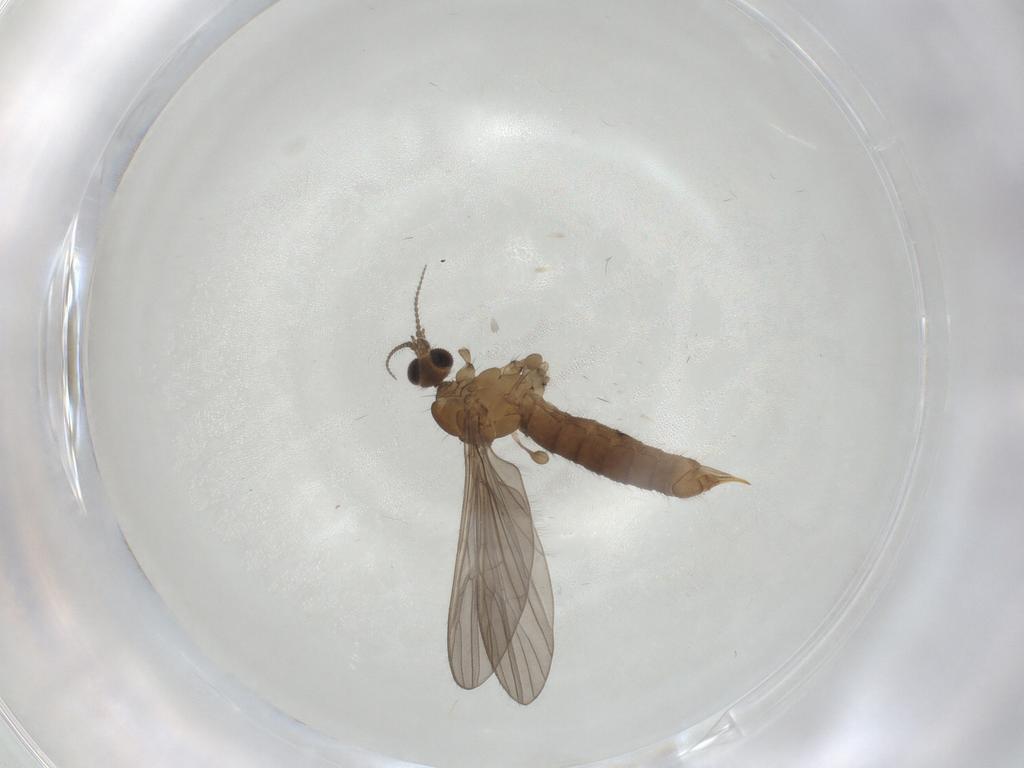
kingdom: Animalia
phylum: Arthropoda
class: Insecta
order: Diptera
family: Limoniidae
